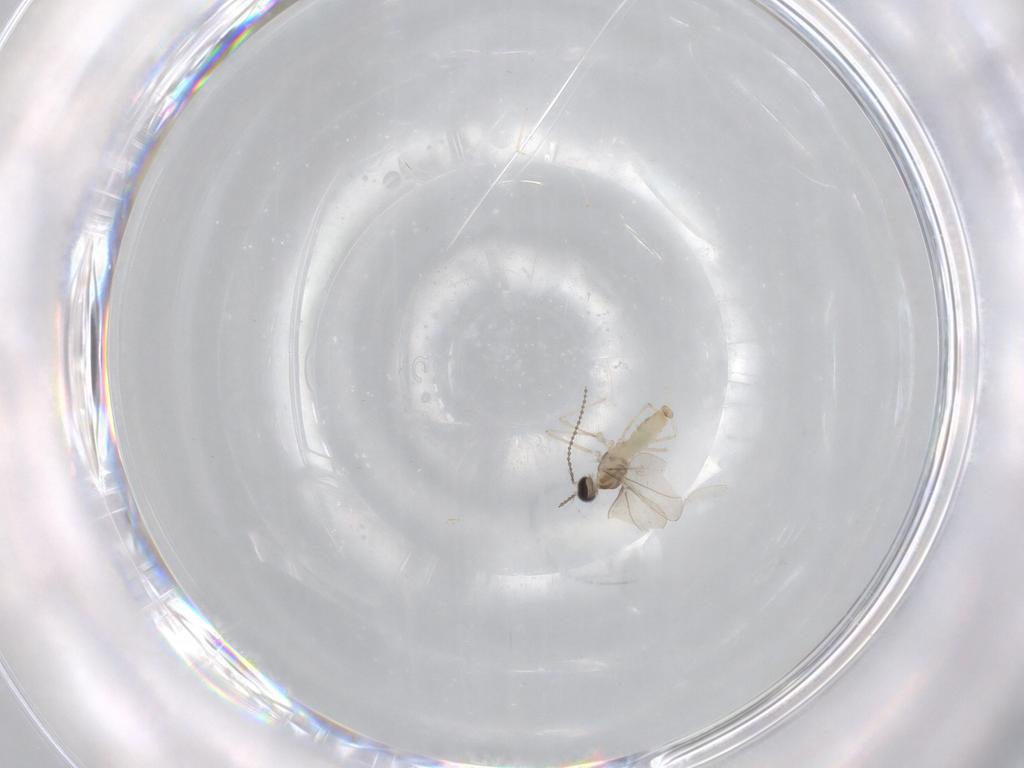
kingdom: Animalia
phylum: Arthropoda
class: Insecta
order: Diptera
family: Cecidomyiidae
